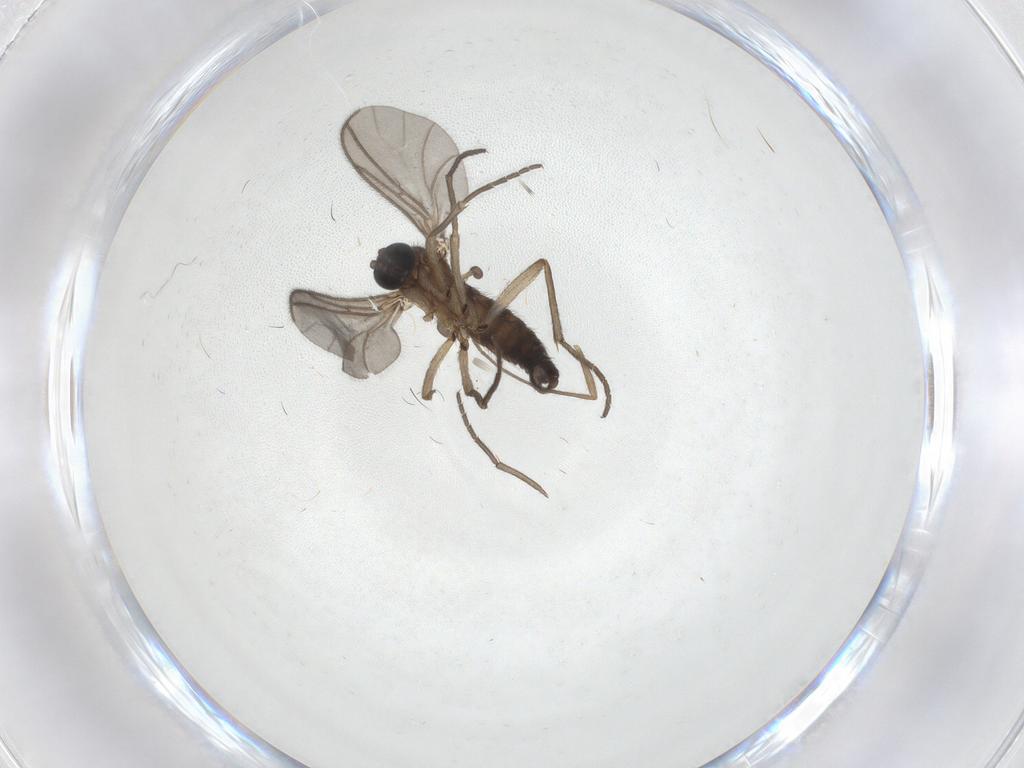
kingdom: Animalia
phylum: Arthropoda
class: Insecta
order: Diptera
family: Sciaridae
